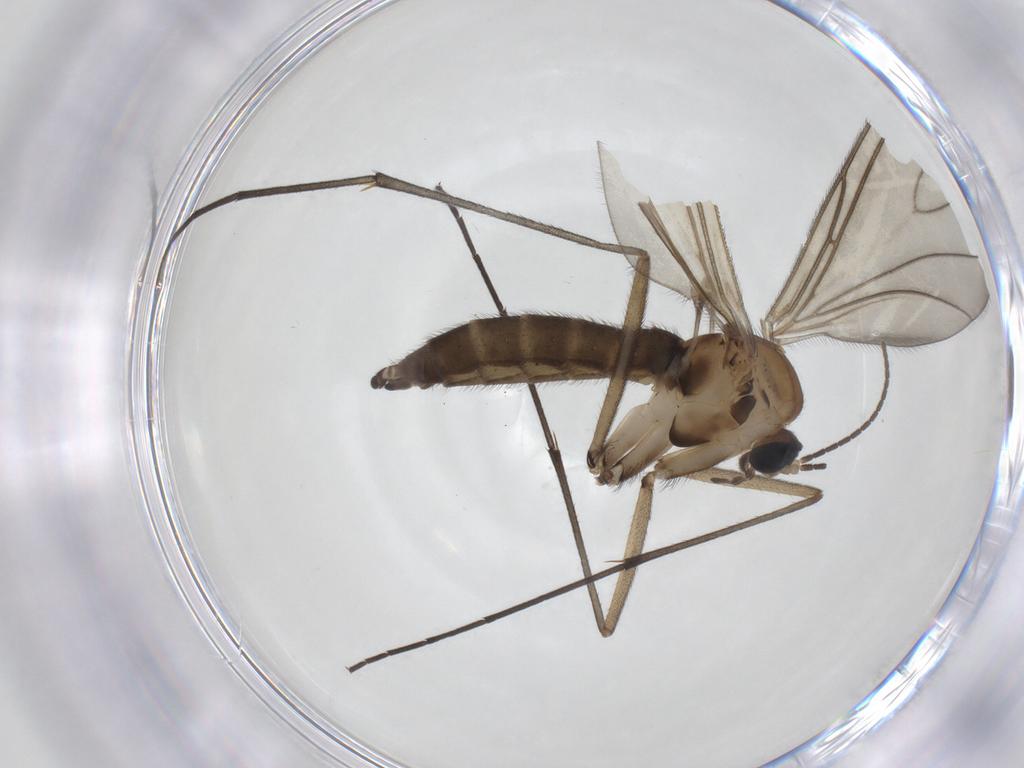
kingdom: Animalia
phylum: Arthropoda
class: Insecta
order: Diptera
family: Sciaridae
